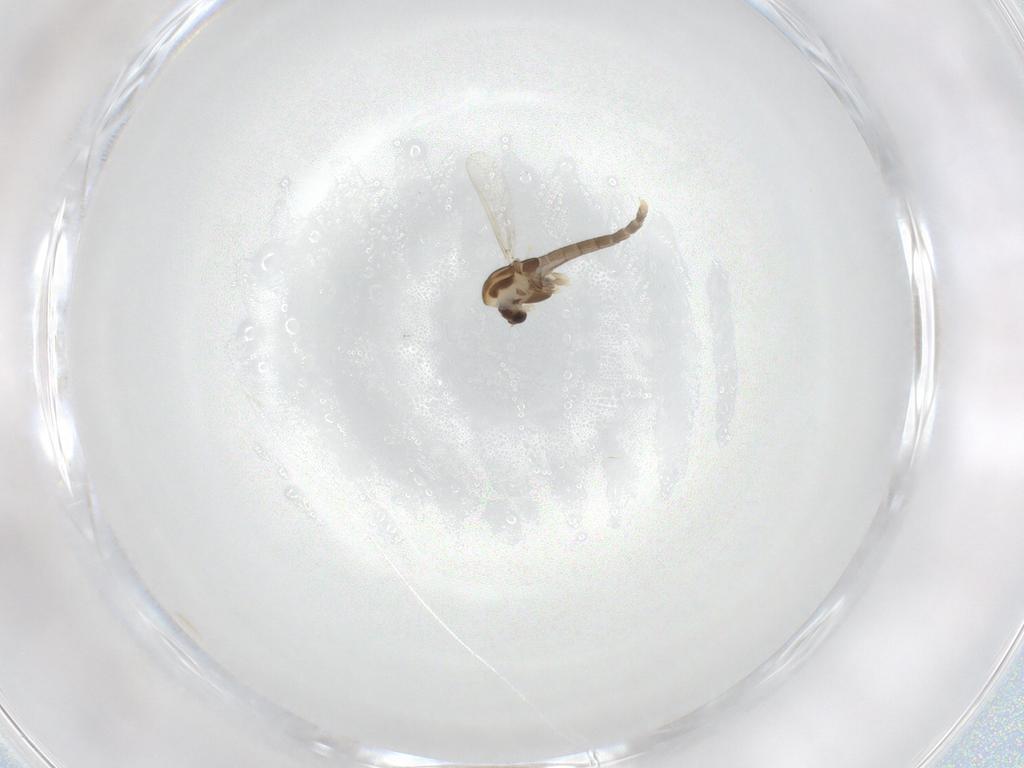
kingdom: Animalia
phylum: Arthropoda
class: Insecta
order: Diptera
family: Chironomidae
